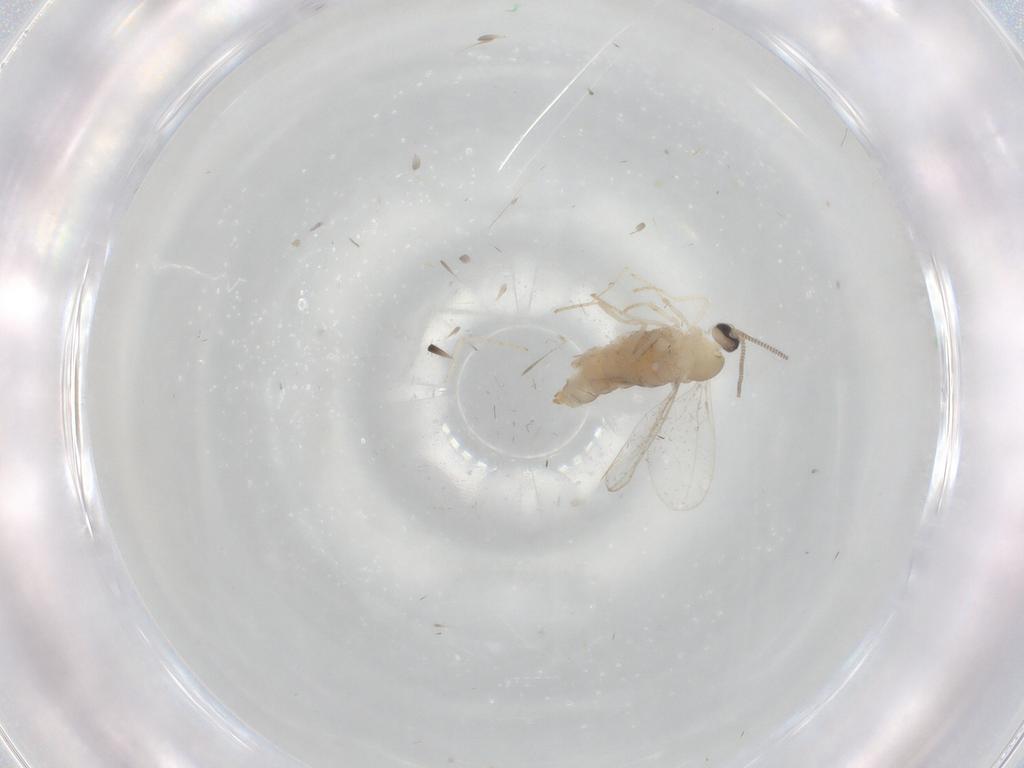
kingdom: Animalia
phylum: Arthropoda
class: Insecta
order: Diptera
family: Cecidomyiidae
